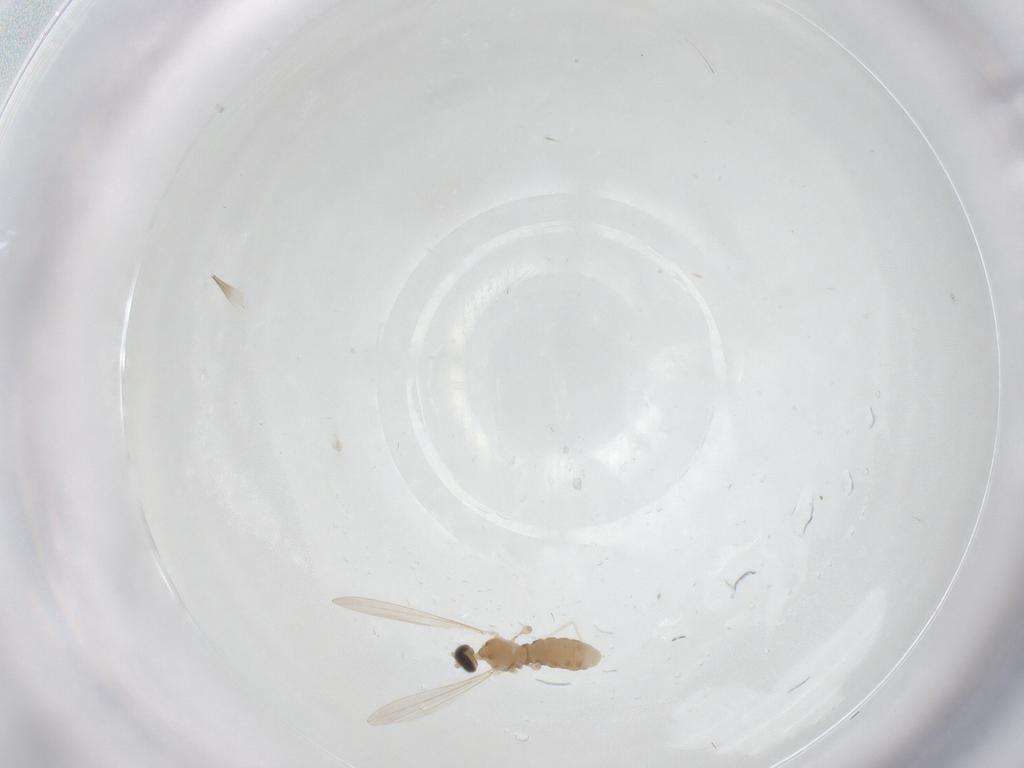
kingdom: Animalia
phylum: Arthropoda
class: Insecta
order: Diptera
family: Cecidomyiidae
